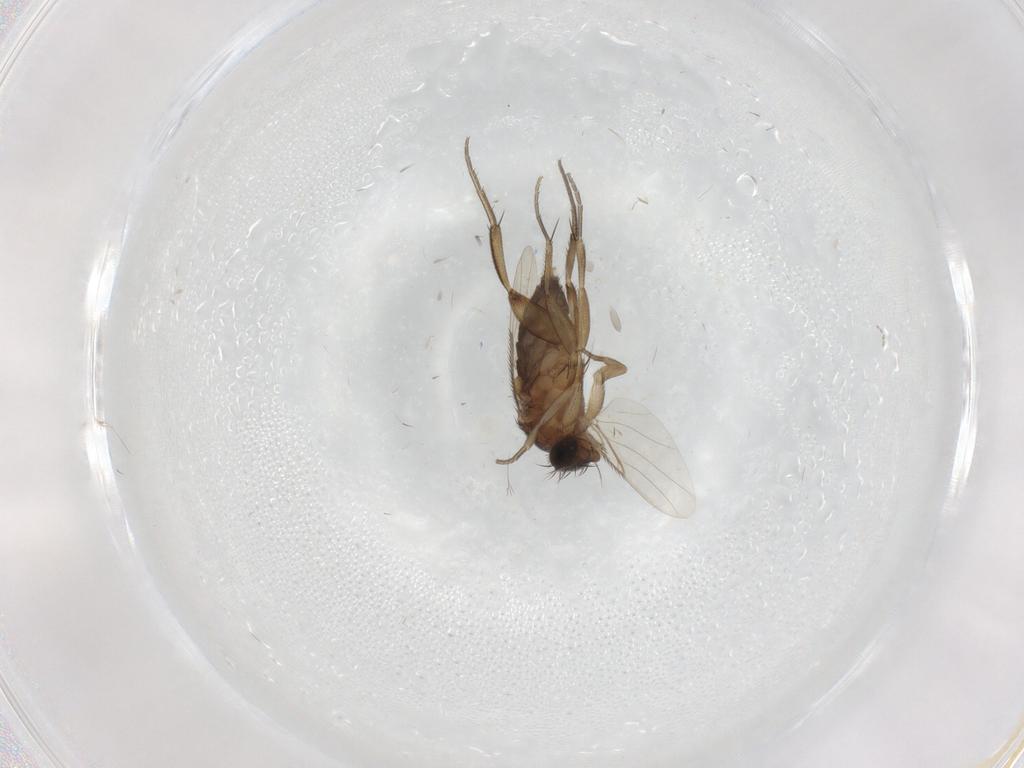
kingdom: Animalia
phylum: Arthropoda
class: Insecta
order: Diptera
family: Phoridae
